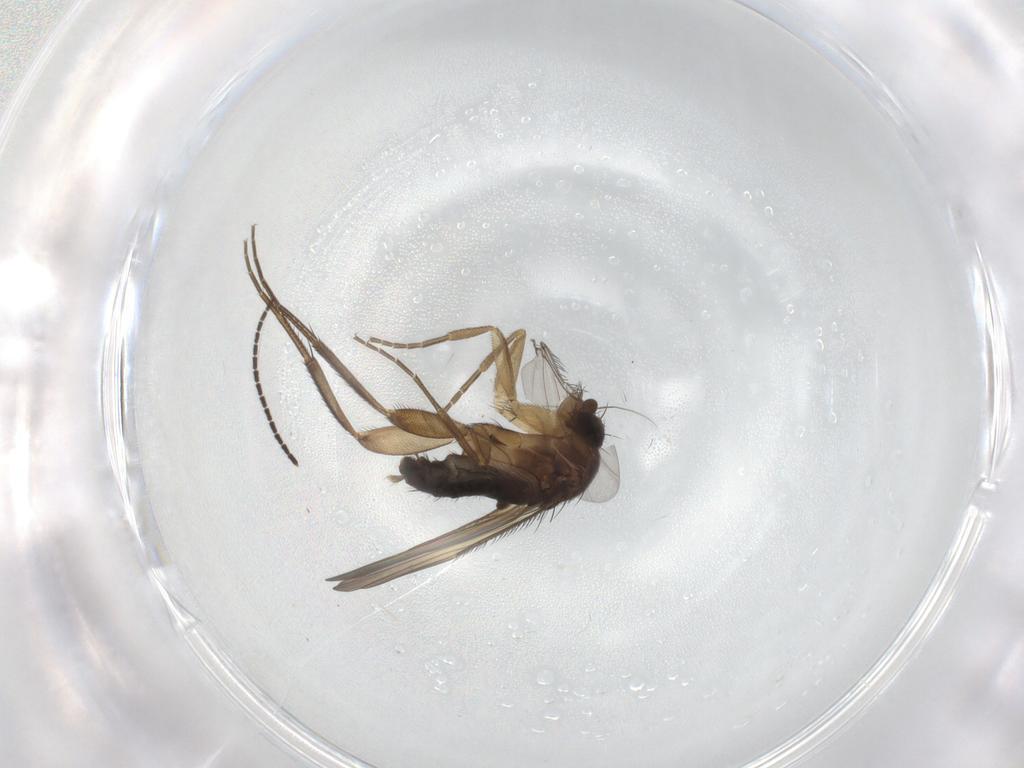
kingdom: Animalia
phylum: Arthropoda
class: Insecta
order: Diptera
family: Phoridae
